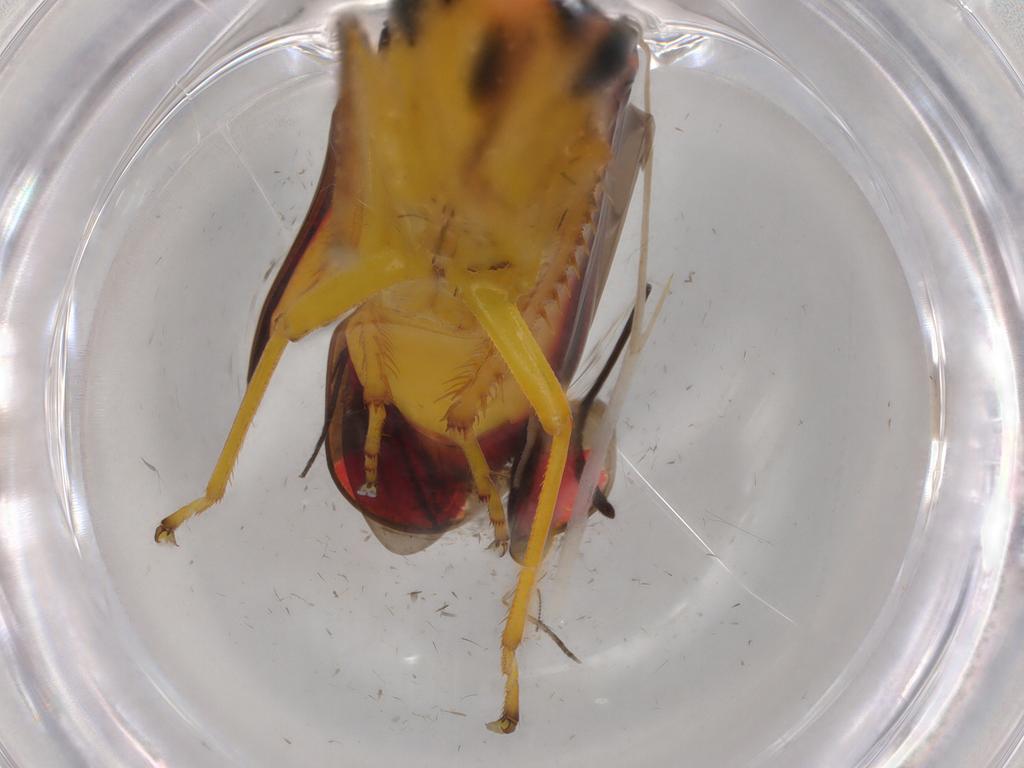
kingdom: Animalia
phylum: Arthropoda
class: Insecta
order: Hemiptera
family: Cicadellidae
